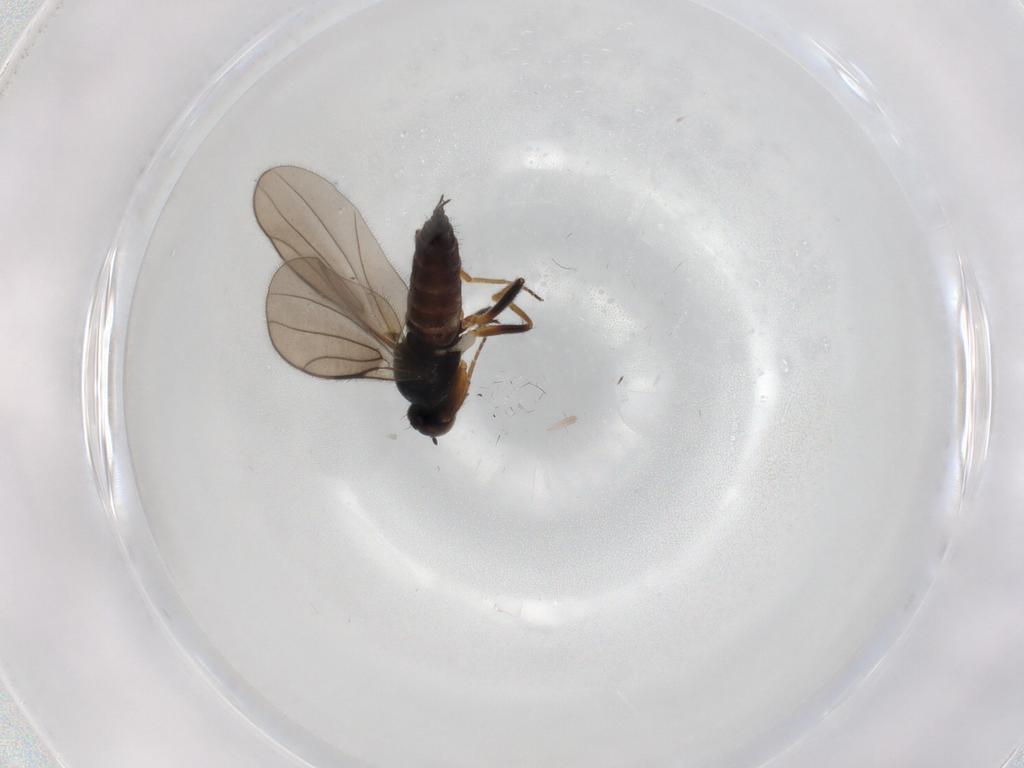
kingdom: Animalia
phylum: Arthropoda
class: Insecta
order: Diptera
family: Hybotidae
